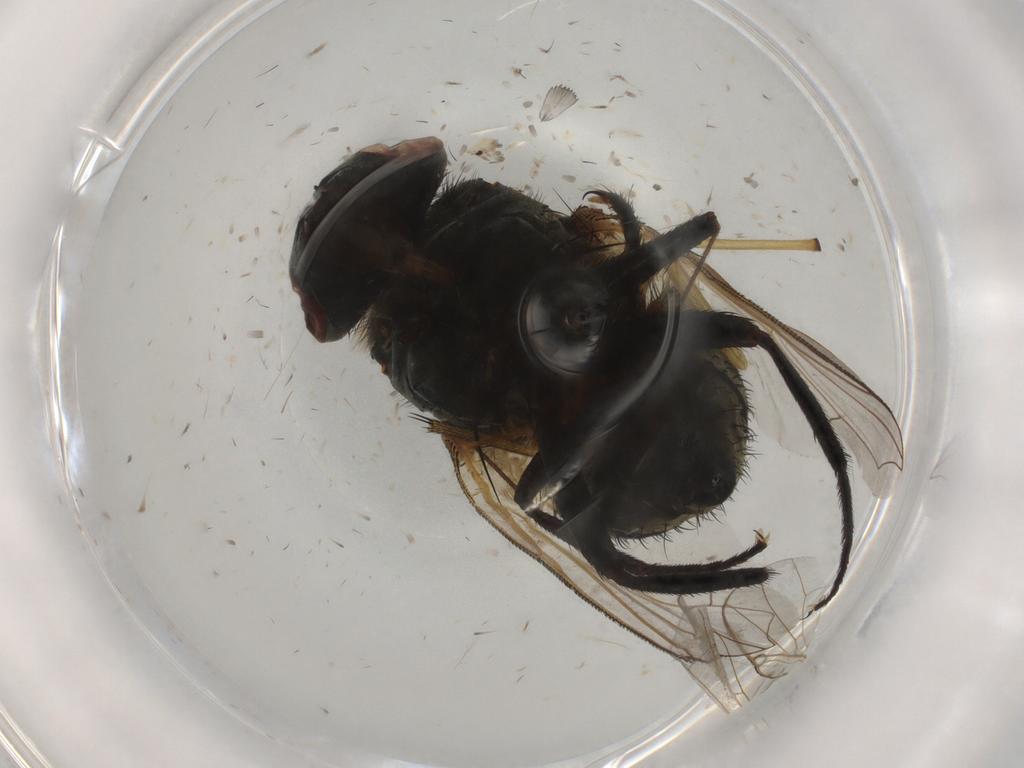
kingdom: Animalia
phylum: Arthropoda
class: Insecta
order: Diptera
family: Muscidae
